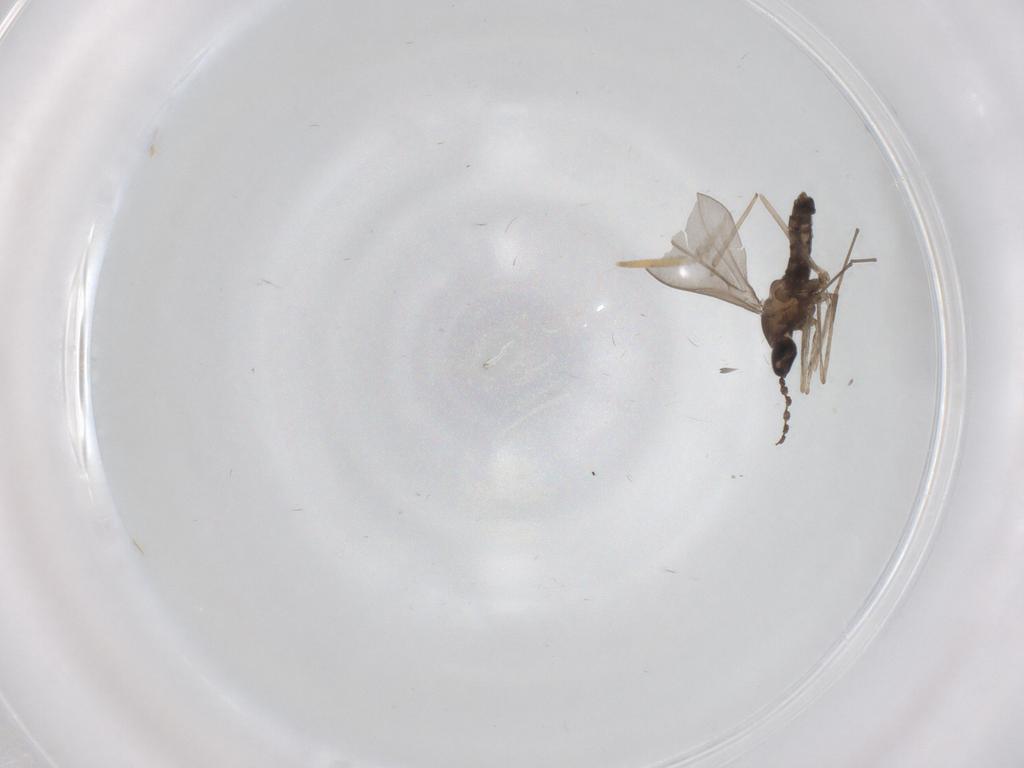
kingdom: Animalia
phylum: Arthropoda
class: Insecta
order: Diptera
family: Cecidomyiidae
